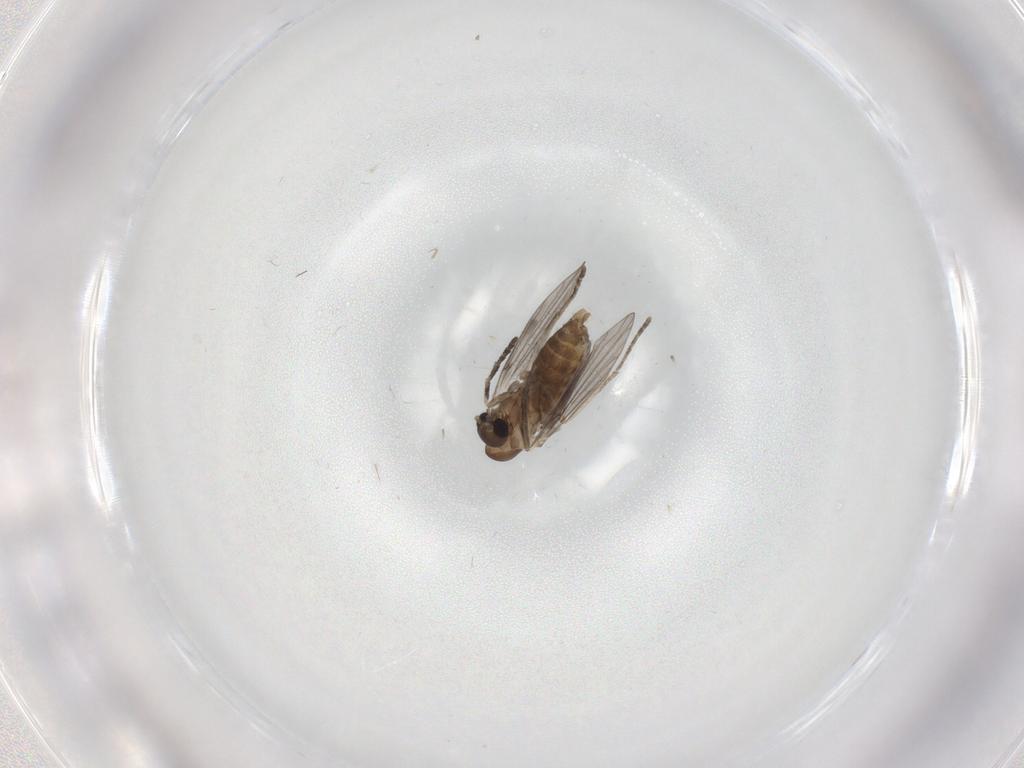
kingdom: Animalia
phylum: Arthropoda
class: Insecta
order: Diptera
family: Cecidomyiidae
